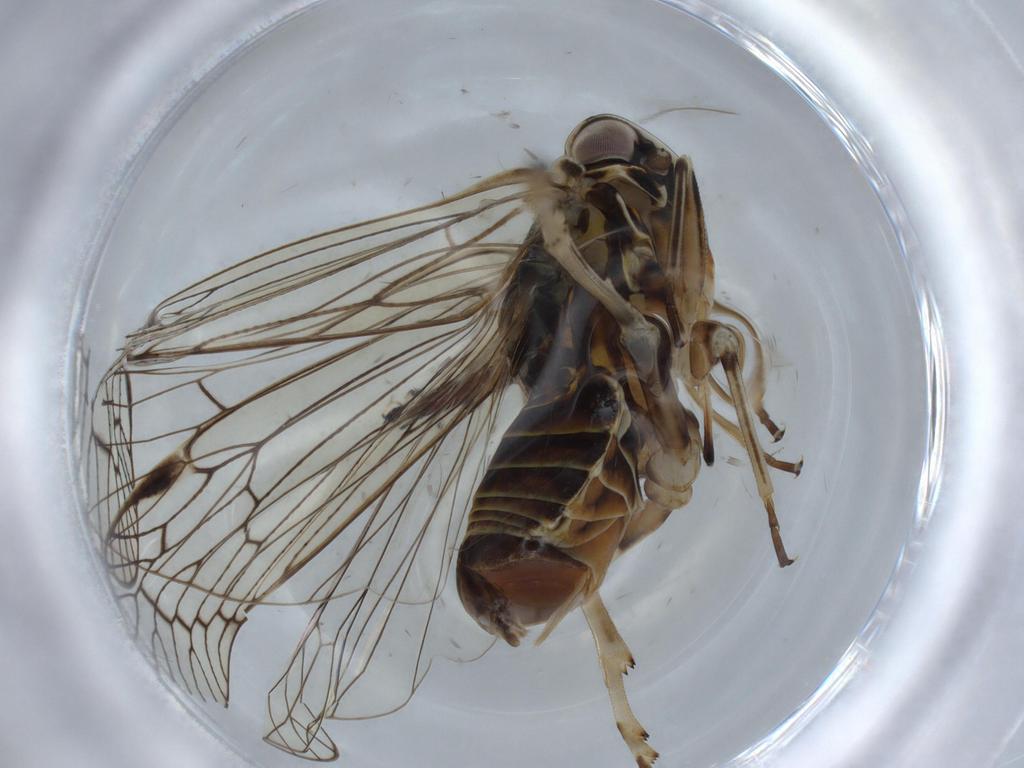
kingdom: Animalia
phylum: Arthropoda
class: Insecta
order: Hemiptera
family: Cixiidae
